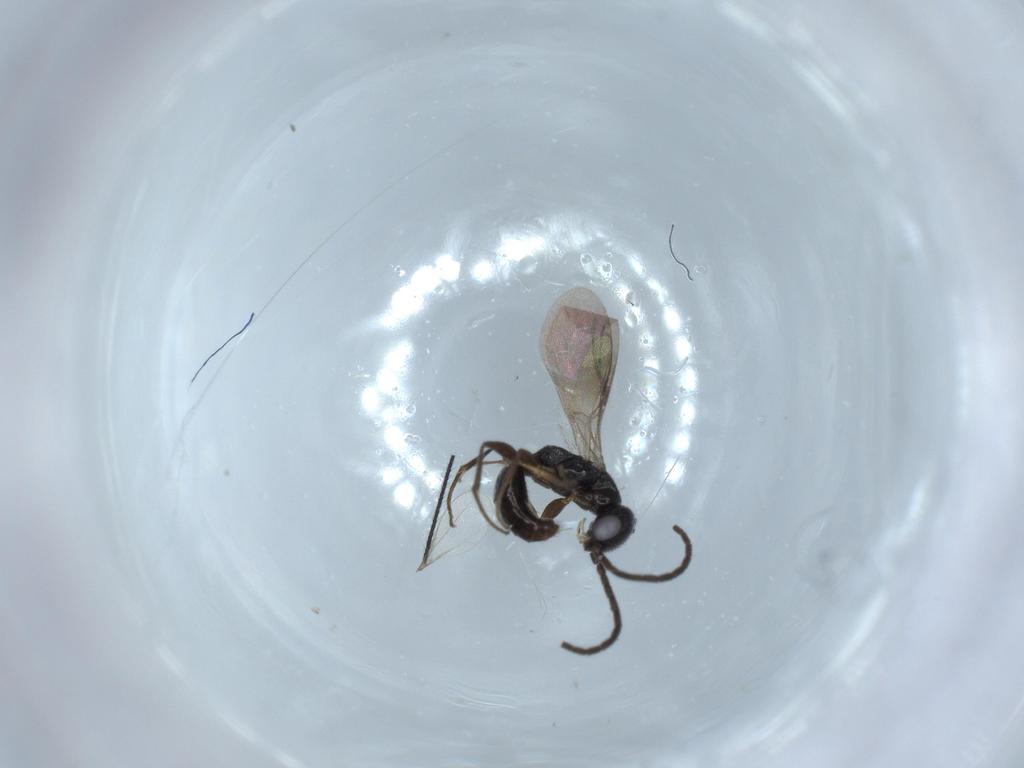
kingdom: Animalia
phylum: Arthropoda
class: Insecta
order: Hymenoptera
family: Bethylidae
